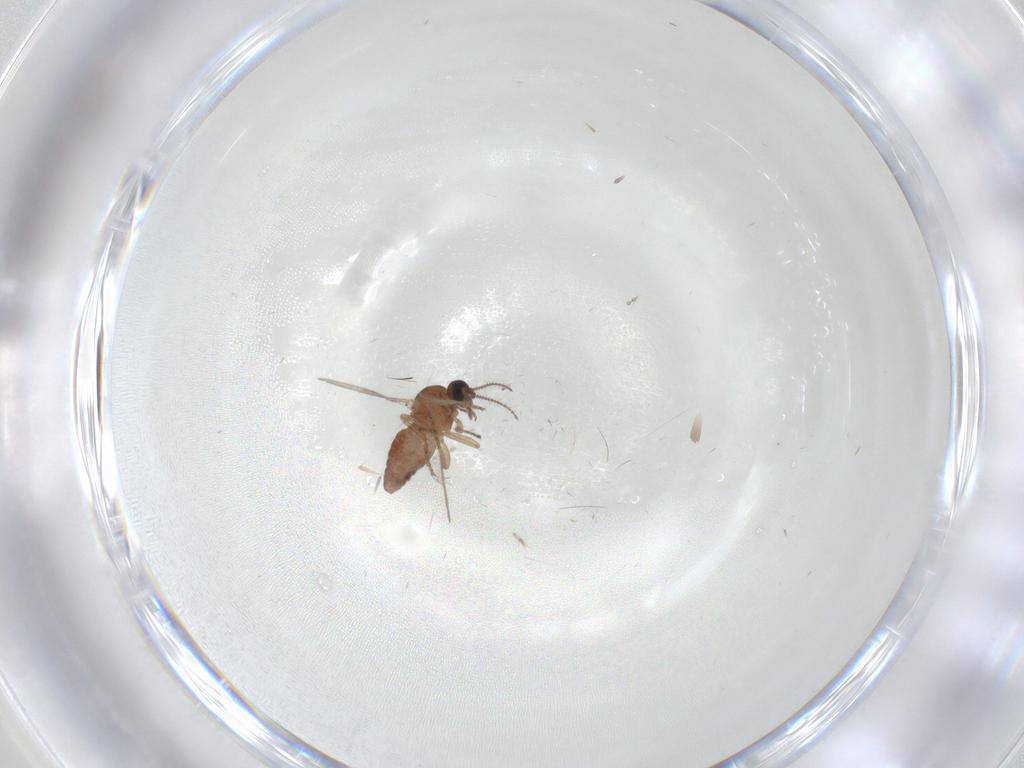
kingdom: Animalia
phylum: Arthropoda
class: Insecta
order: Diptera
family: Ceratopogonidae
